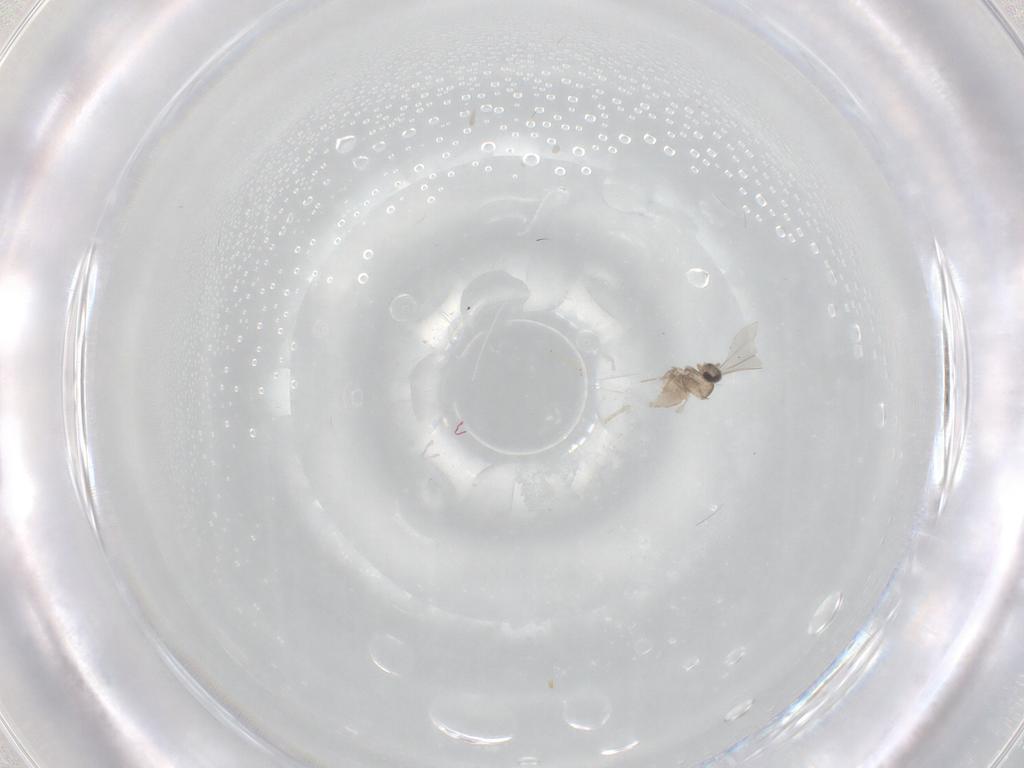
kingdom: Animalia
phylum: Arthropoda
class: Insecta
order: Diptera
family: Cecidomyiidae
